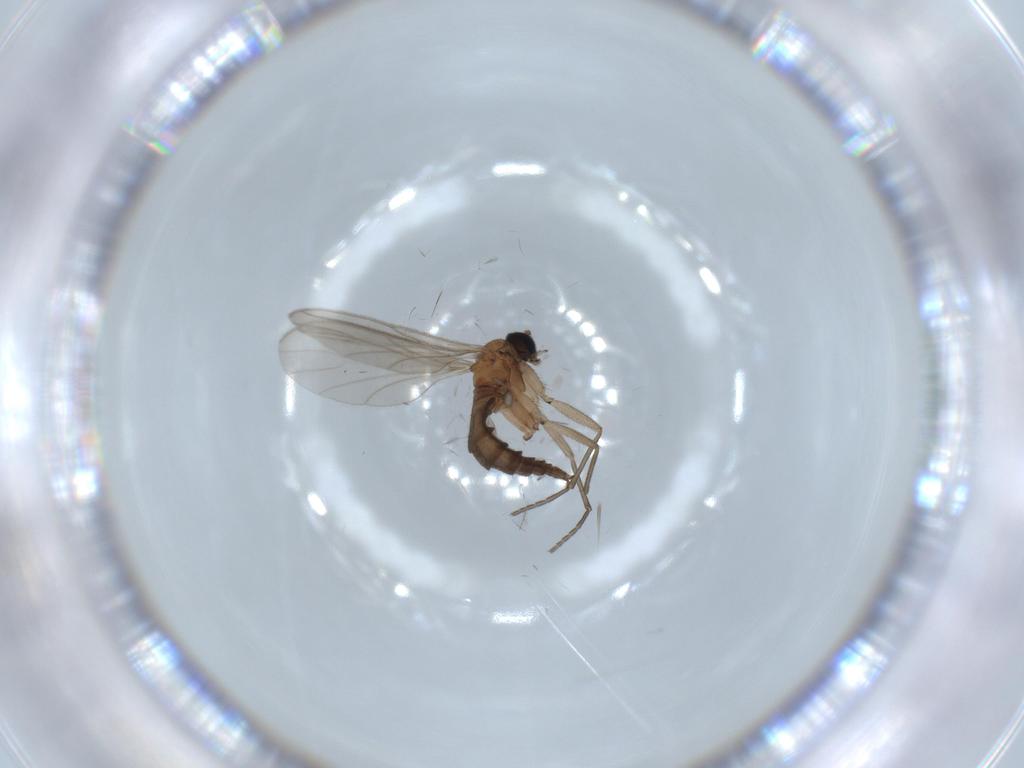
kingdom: Animalia
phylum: Arthropoda
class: Insecta
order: Diptera
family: Sciaridae
